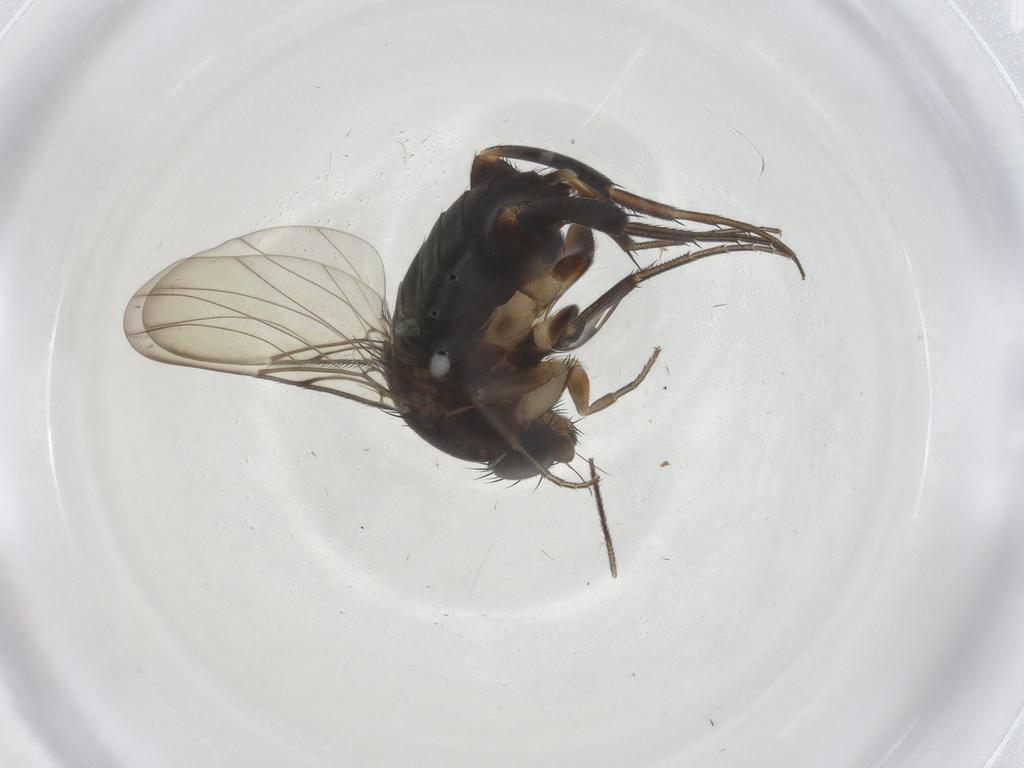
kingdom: Animalia
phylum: Arthropoda
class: Insecta
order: Diptera
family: Phoridae
